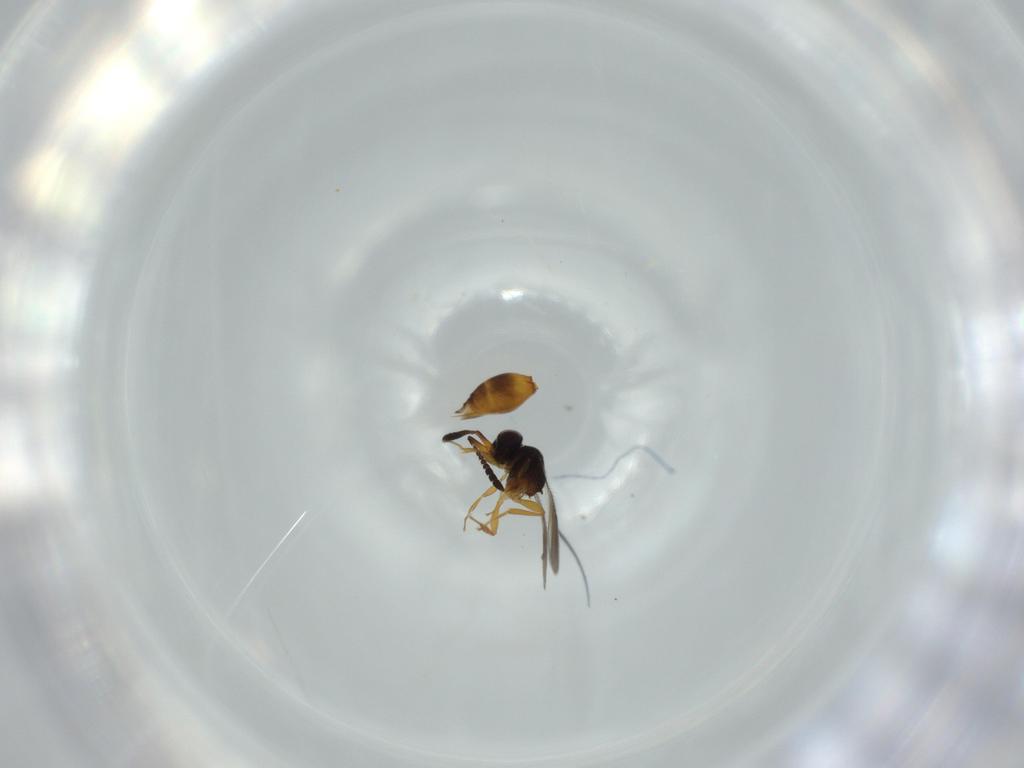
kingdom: Animalia
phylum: Arthropoda
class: Insecta
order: Hymenoptera
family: Ceraphronidae
